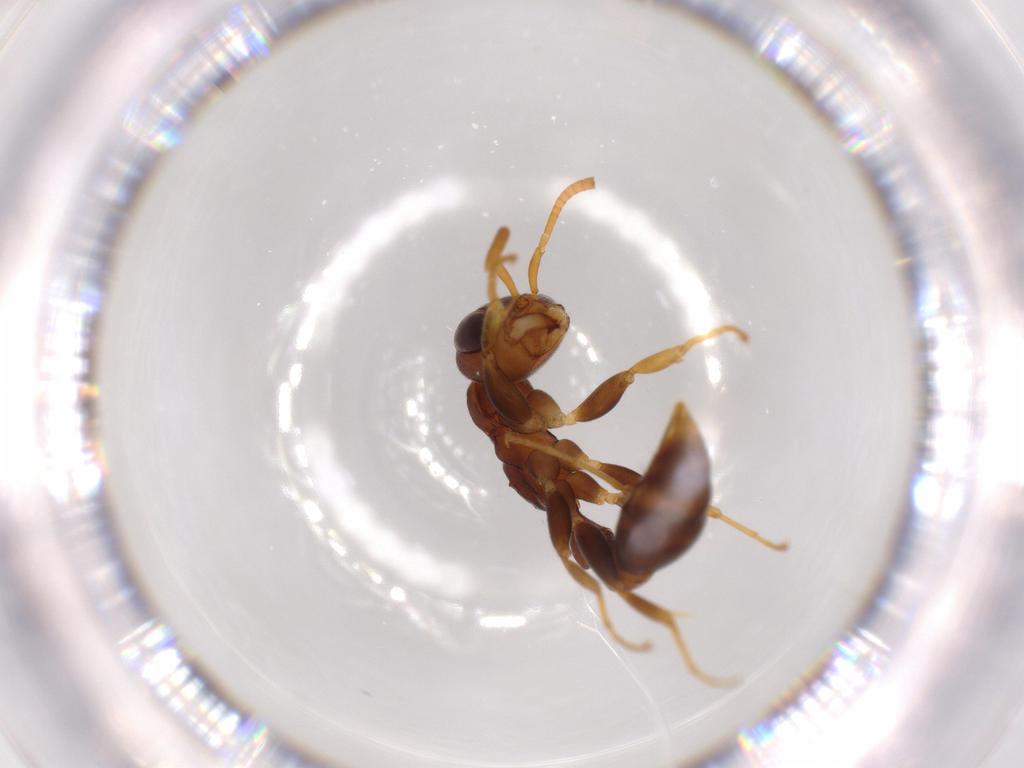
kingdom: Animalia
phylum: Arthropoda
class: Insecta
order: Hymenoptera
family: Formicidae
